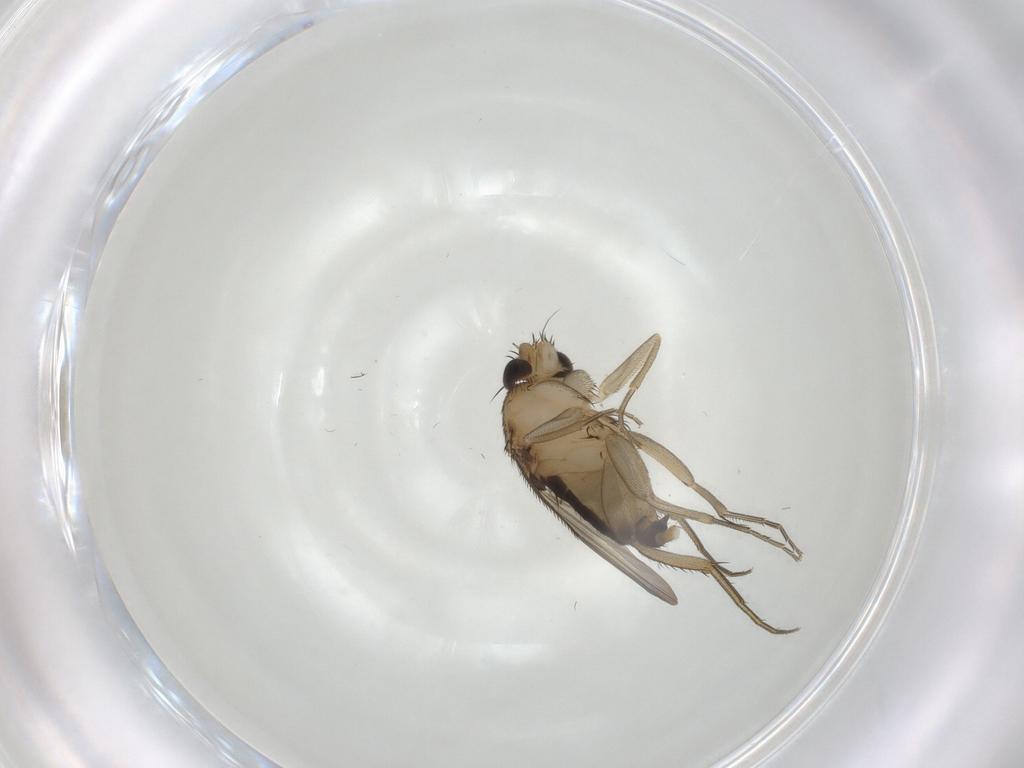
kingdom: Animalia
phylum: Arthropoda
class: Insecta
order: Diptera
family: Phoridae
